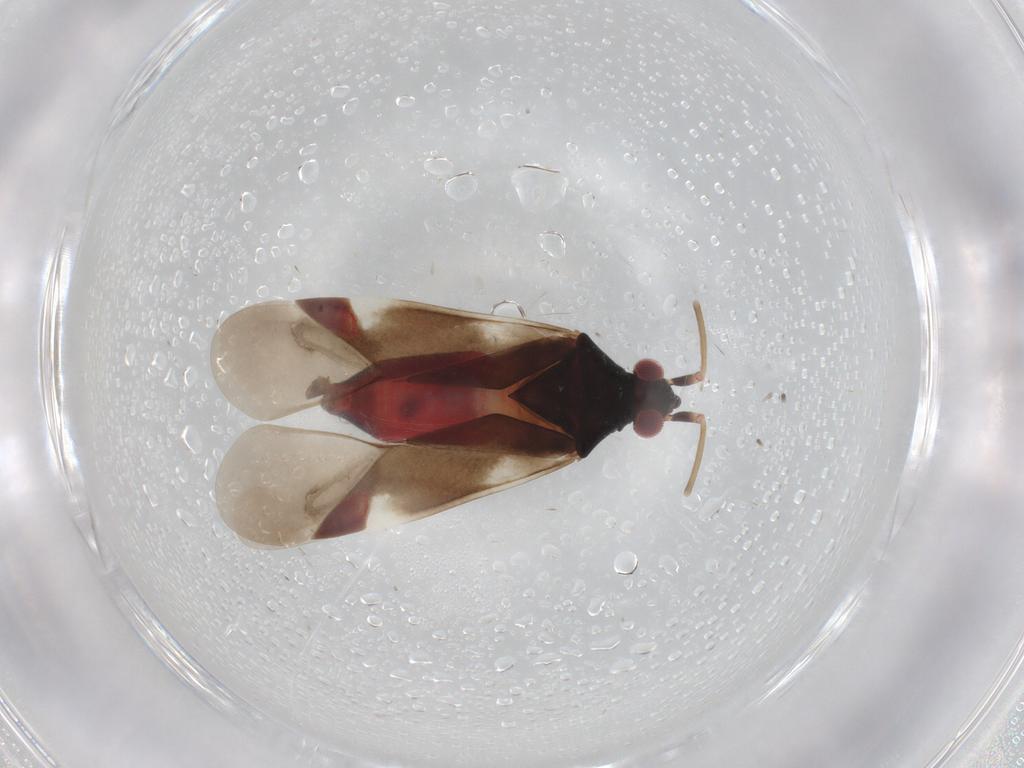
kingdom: Animalia
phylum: Arthropoda
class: Insecta
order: Hemiptera
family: Miridae
